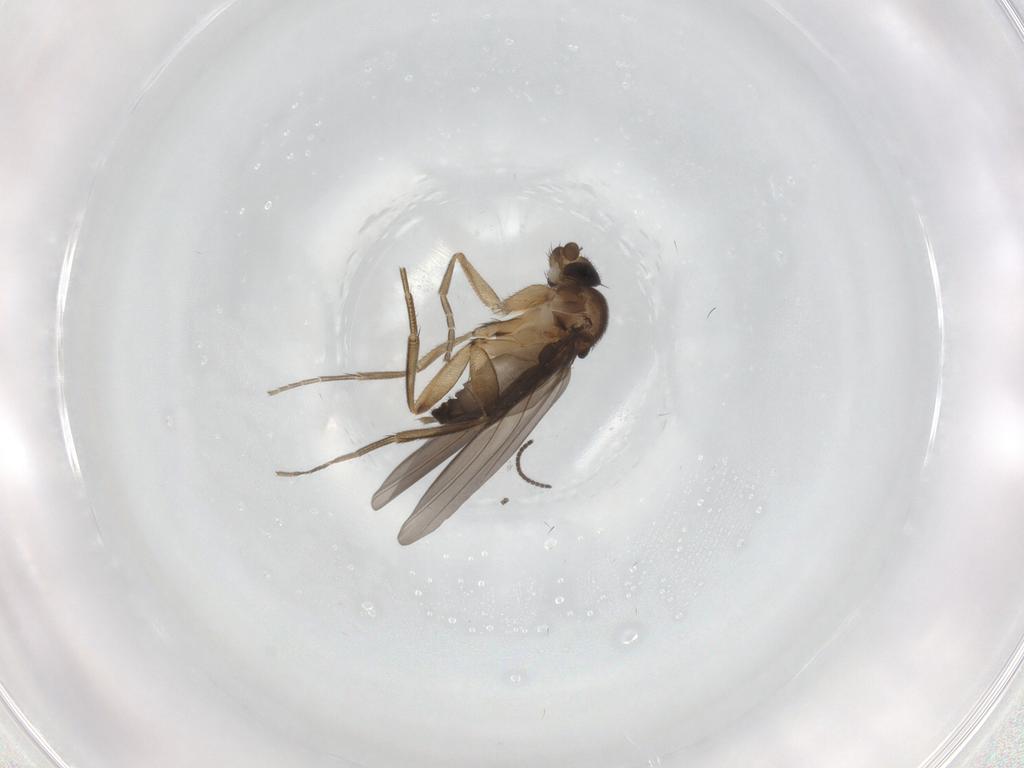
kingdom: Animalia
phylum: Arthropoda
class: Insecta
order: Diptera
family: Phoridae
